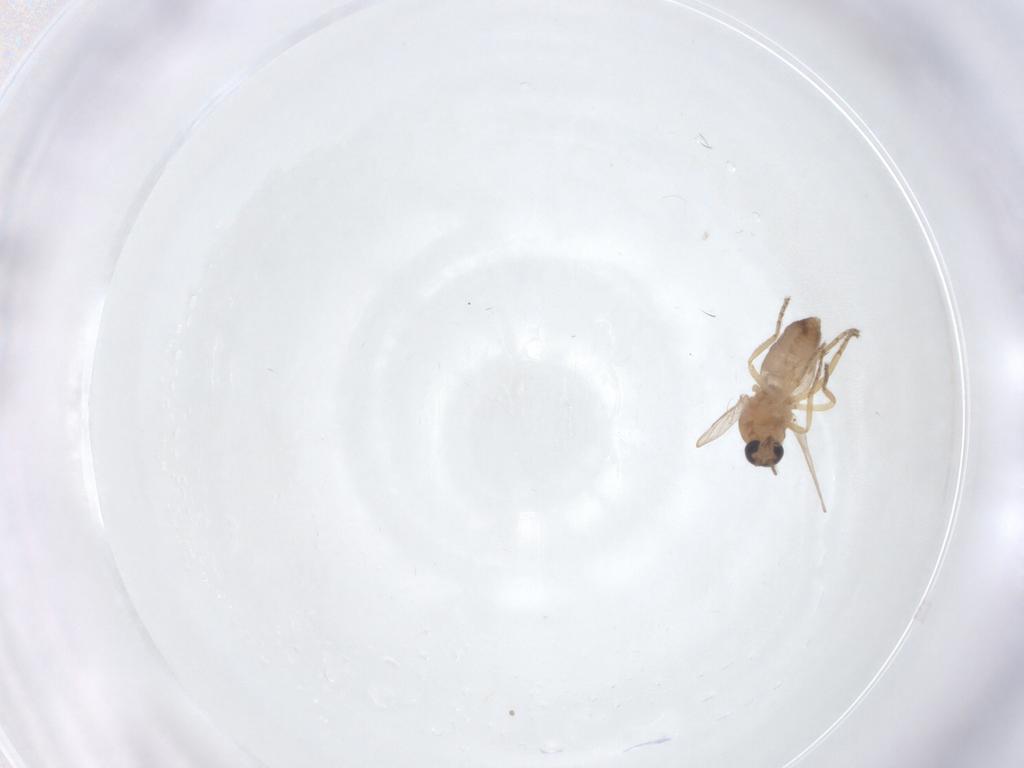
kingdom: Animalia
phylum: Arthropoda
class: Insecta
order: Diptera
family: Ceratopogonidae
